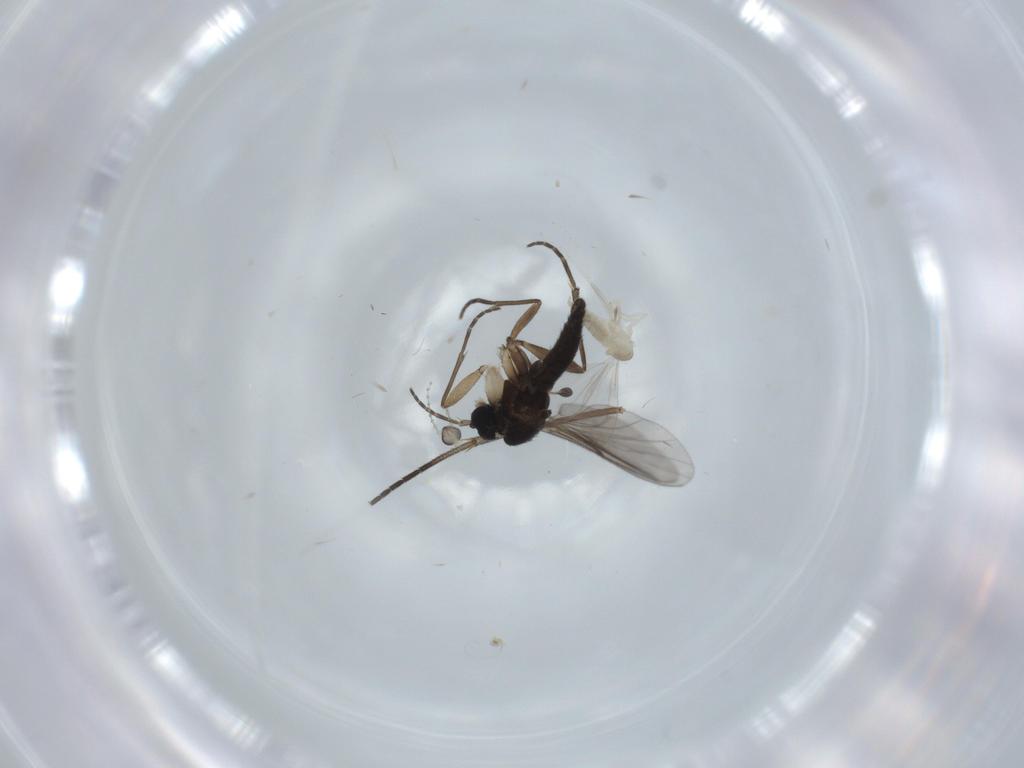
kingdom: Animalia
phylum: Arthropoda
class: Insecta
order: Diptera
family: Sciaridae
